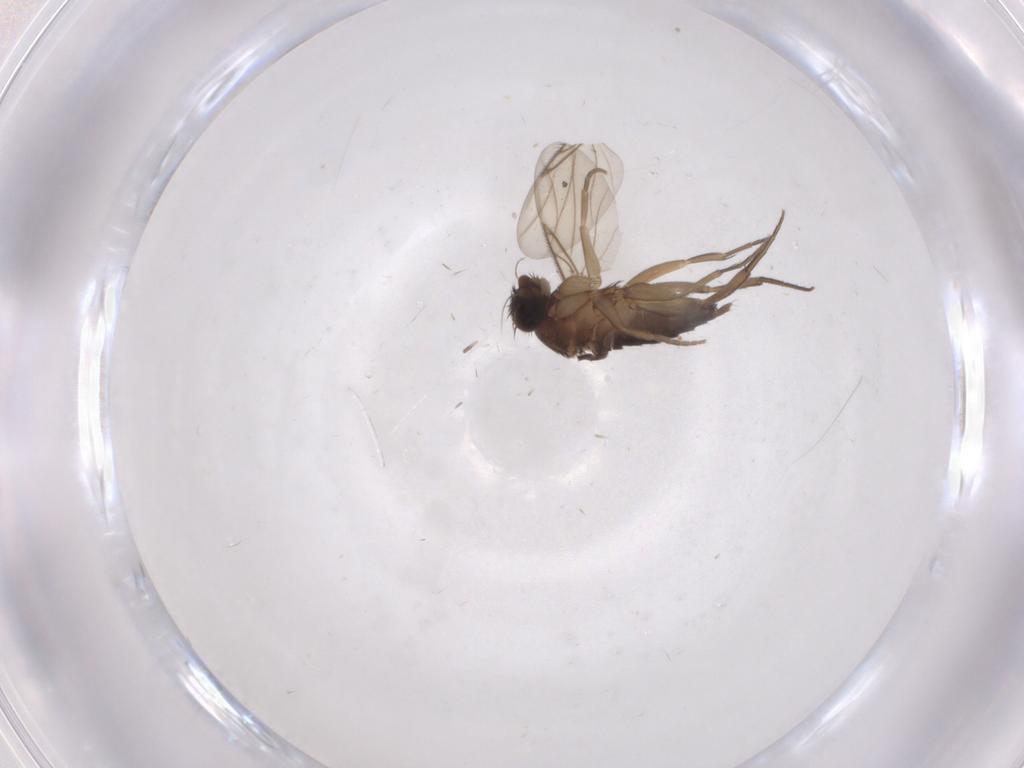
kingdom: Animalia
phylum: Arthropoda
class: Insecta
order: Diptera
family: Phoridae
